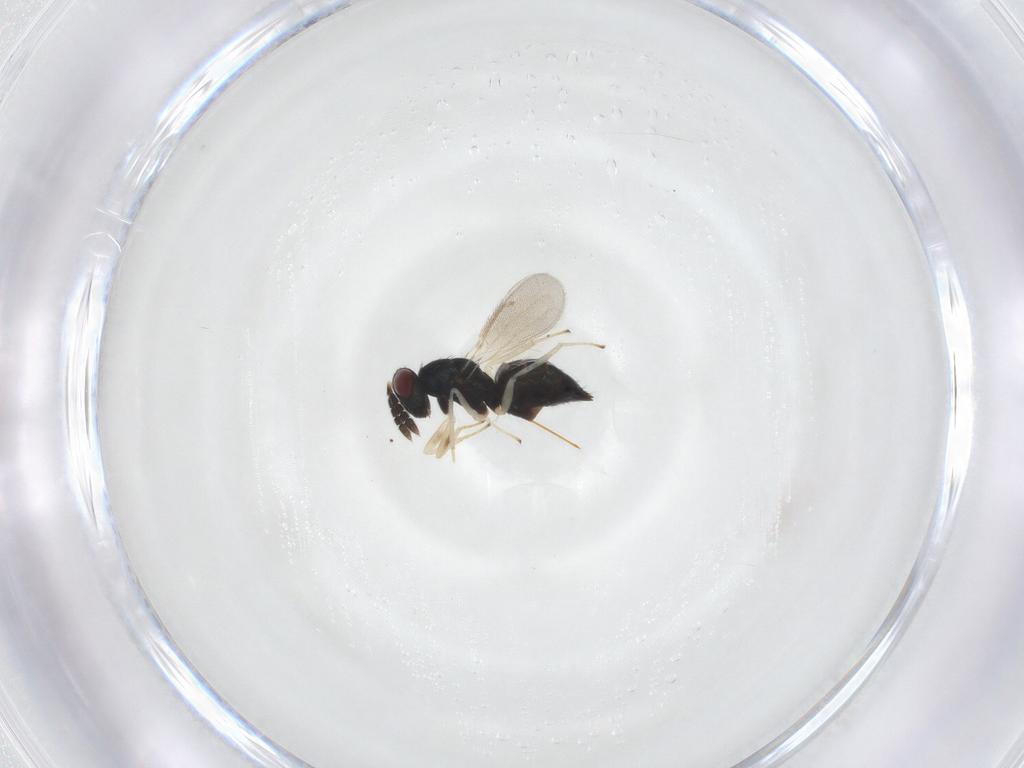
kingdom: Animalia
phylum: Arthropoda
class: Insecta
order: Hymenoptera
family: Eulophidae
